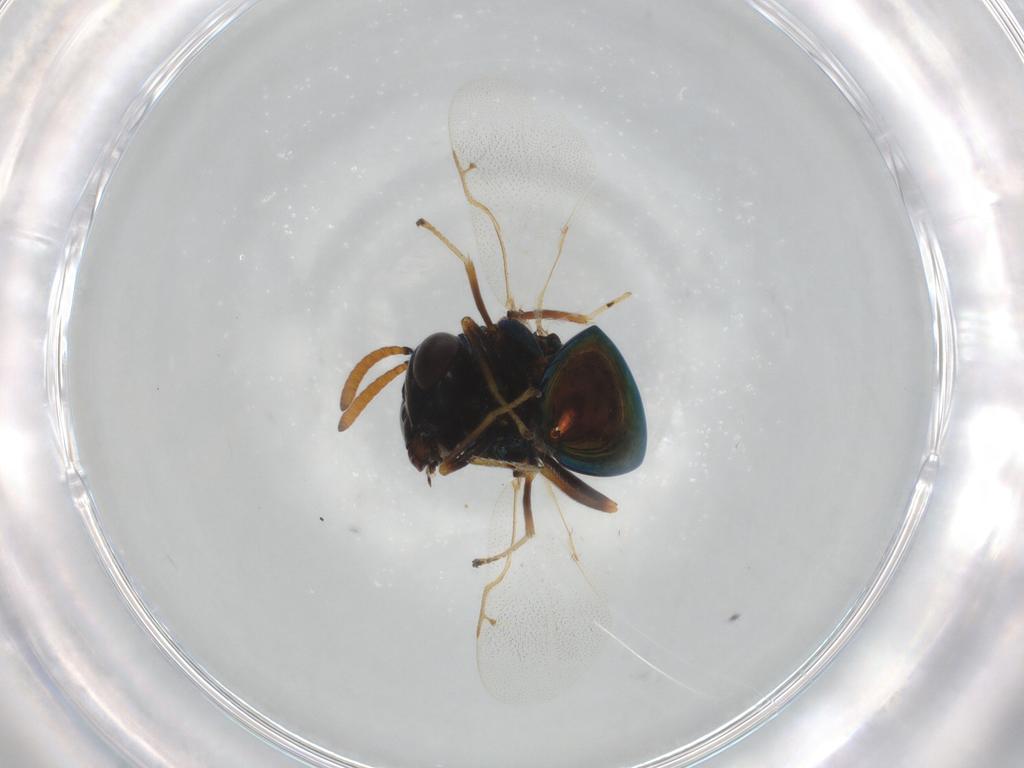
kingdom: Animalia
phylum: Arthropoda
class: Insecta
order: Hymenoptera
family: Perilampidae
